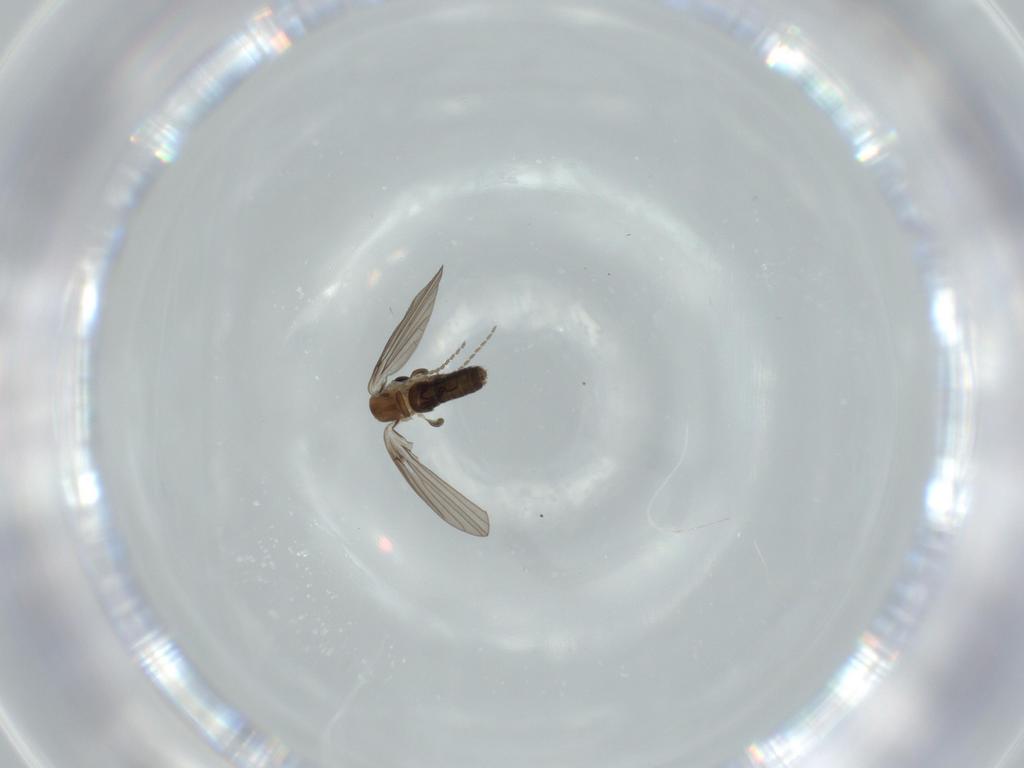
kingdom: Animalia
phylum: Arthropoda
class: Insecta
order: Diptera
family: Psychodidae
